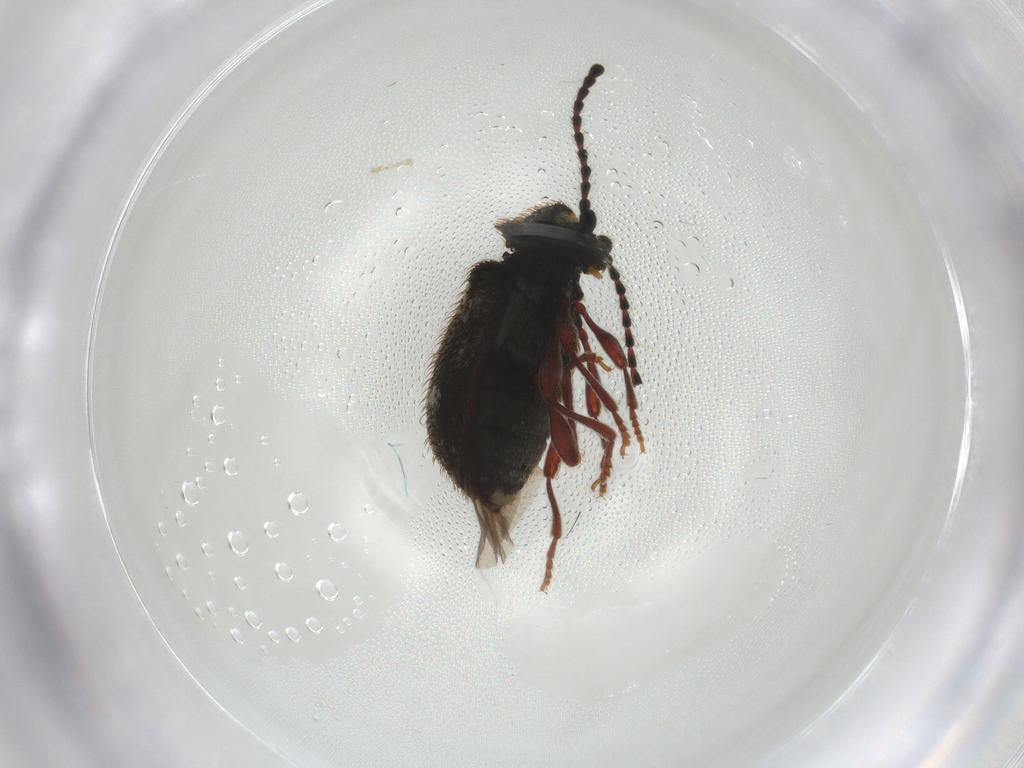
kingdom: Animalia
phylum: Arthropoda
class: Insecta
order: Coleoptera
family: Ptinidae
